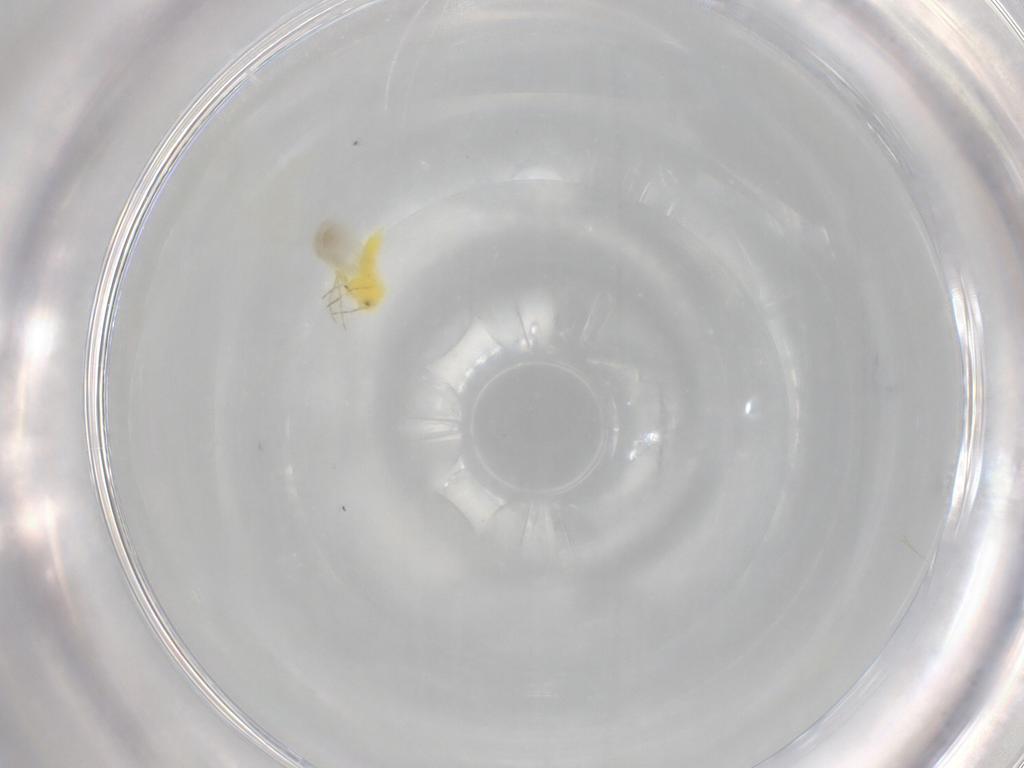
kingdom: Animalia
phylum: Arthropoda
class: Insecta
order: Hemiptera
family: Aleyrodidae
